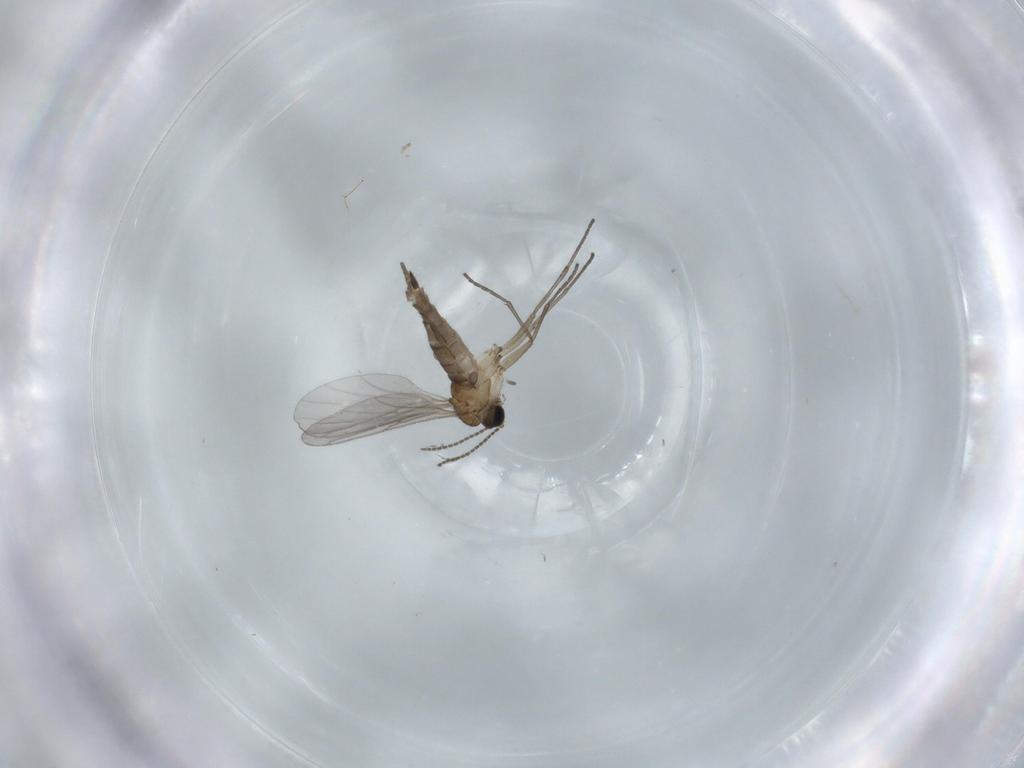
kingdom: Animalia
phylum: Arthropoda
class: Insecta
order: Diptera
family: Sciaridae
